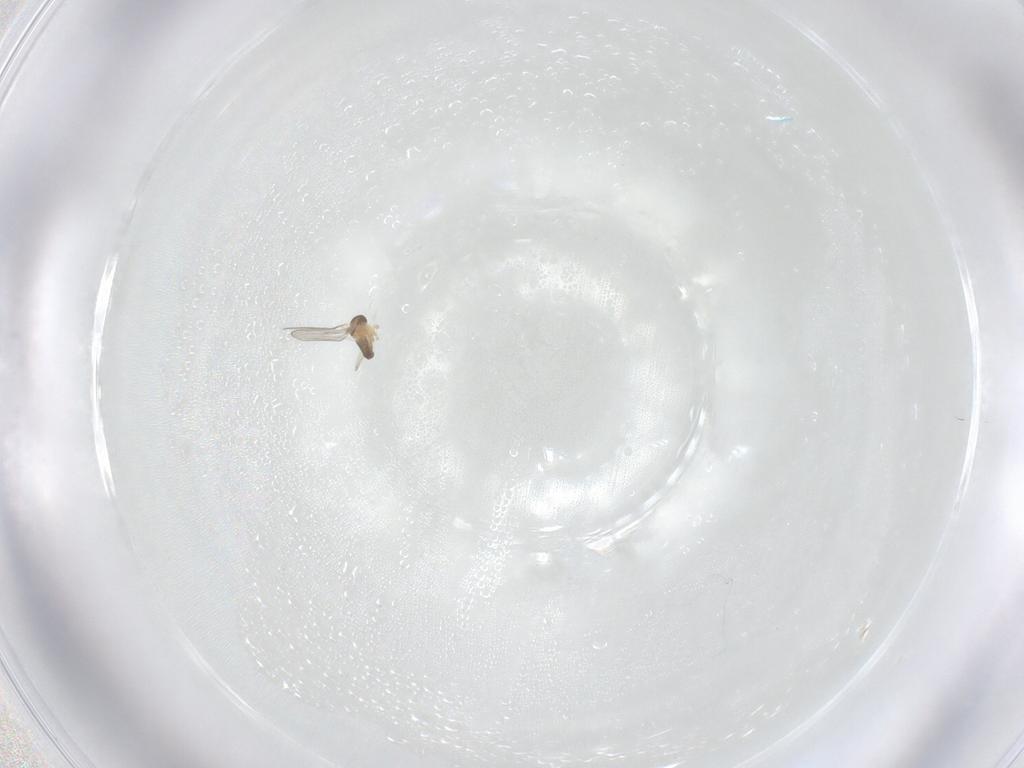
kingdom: Animalia
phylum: Arthropoda
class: Insecta
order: Diptera
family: Cecidomyiidae
